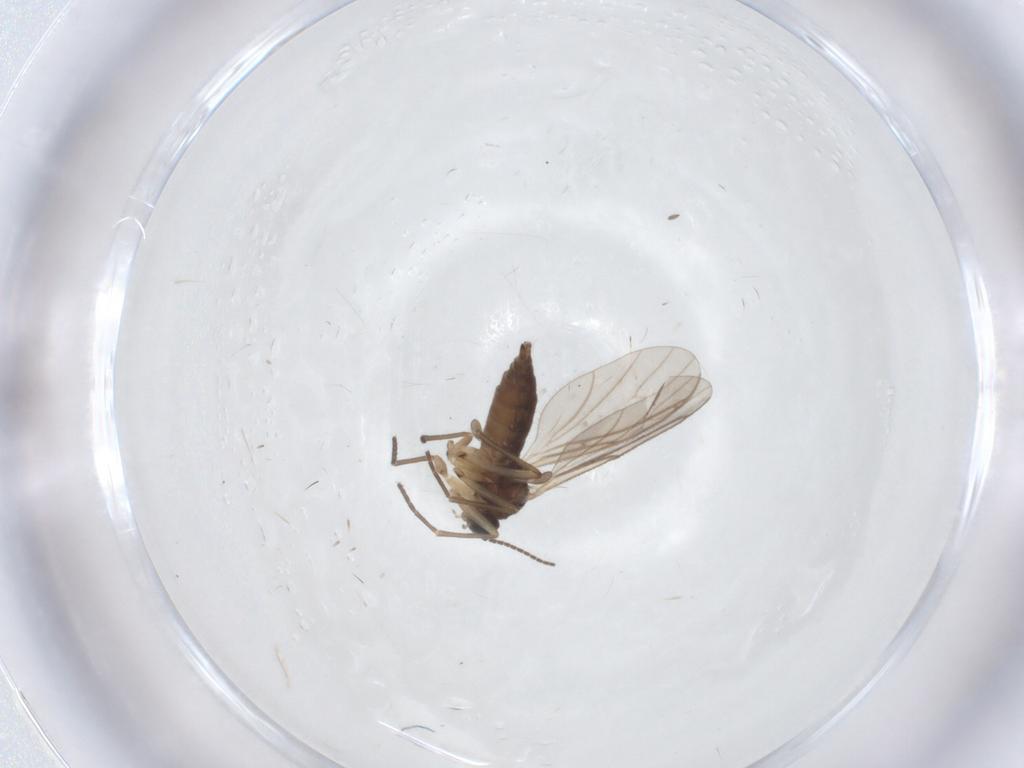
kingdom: Animalia
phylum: Arthropoda
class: Insecta
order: Diptera
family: Sciaridae
